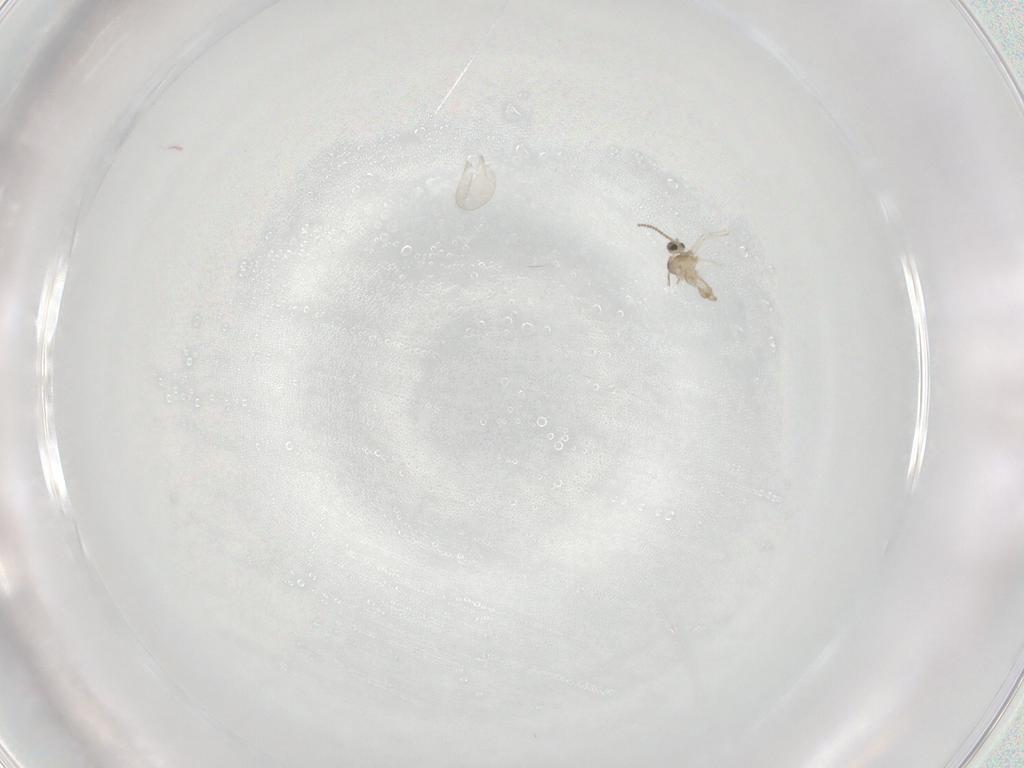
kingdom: Animalia
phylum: Arthropoda
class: Insecta
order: Diptera
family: Cecidomyiidae
